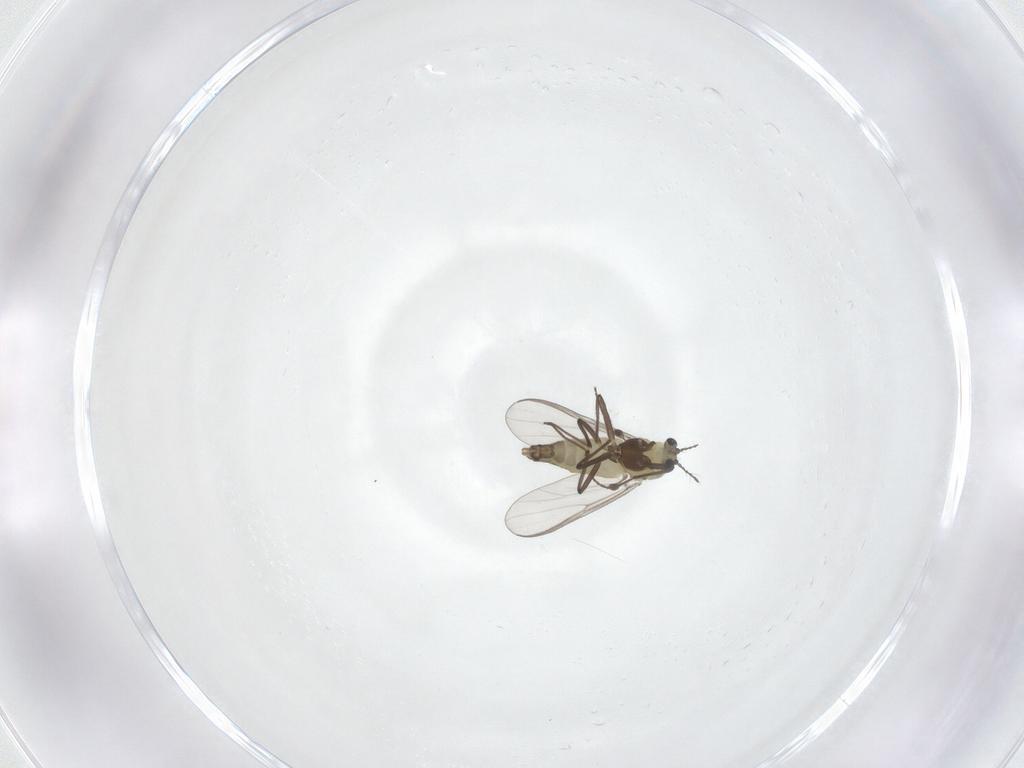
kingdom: Animalia
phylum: Arthropoda
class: Insecta
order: Diptera
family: Chironomidae
